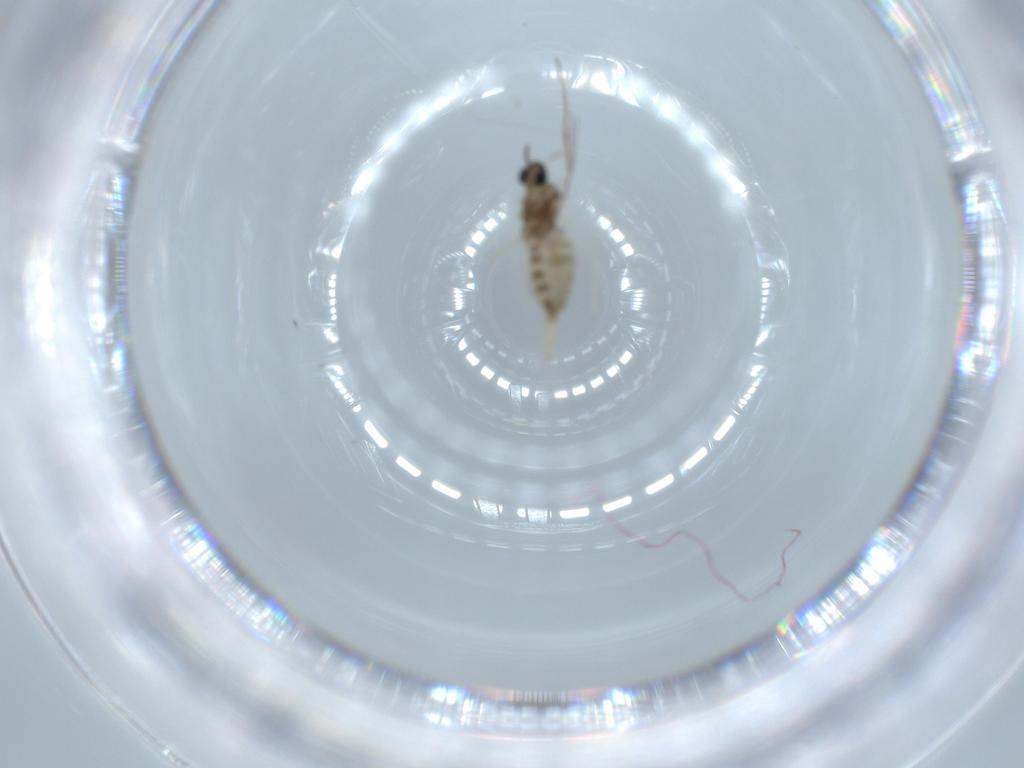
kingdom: Animalia
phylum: Arthropoda
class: Insecta
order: Diptera
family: Cecidomyiidae
